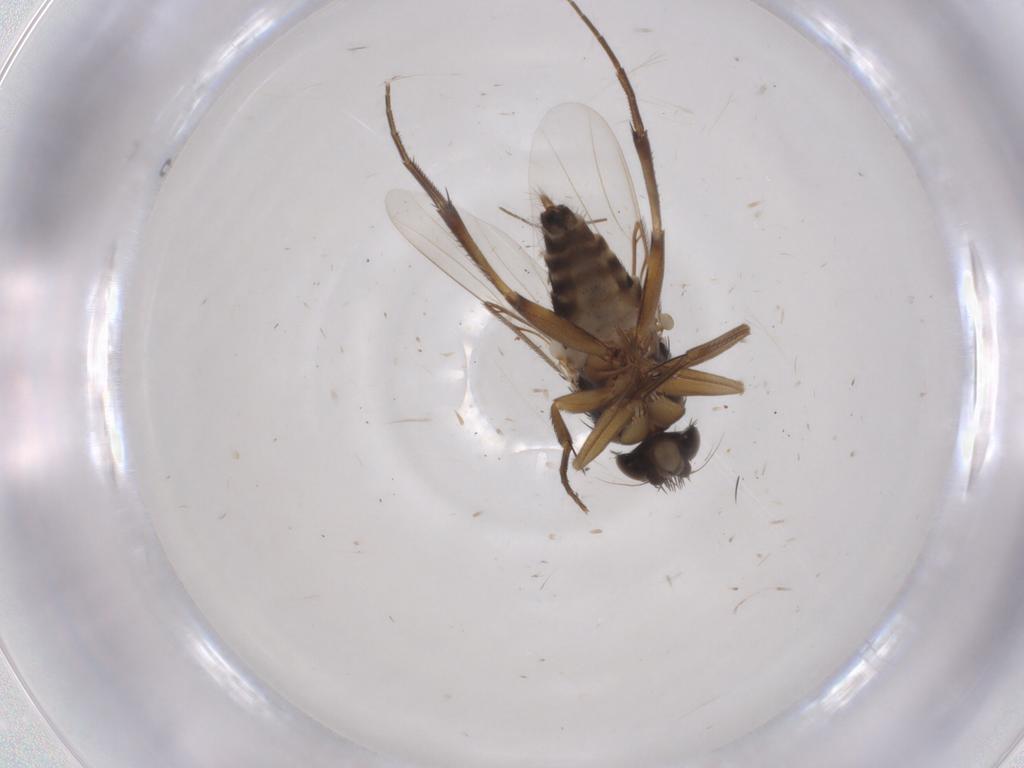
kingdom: Animalia
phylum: Arthropoda
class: Insecta
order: Diptera
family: Phoridae
